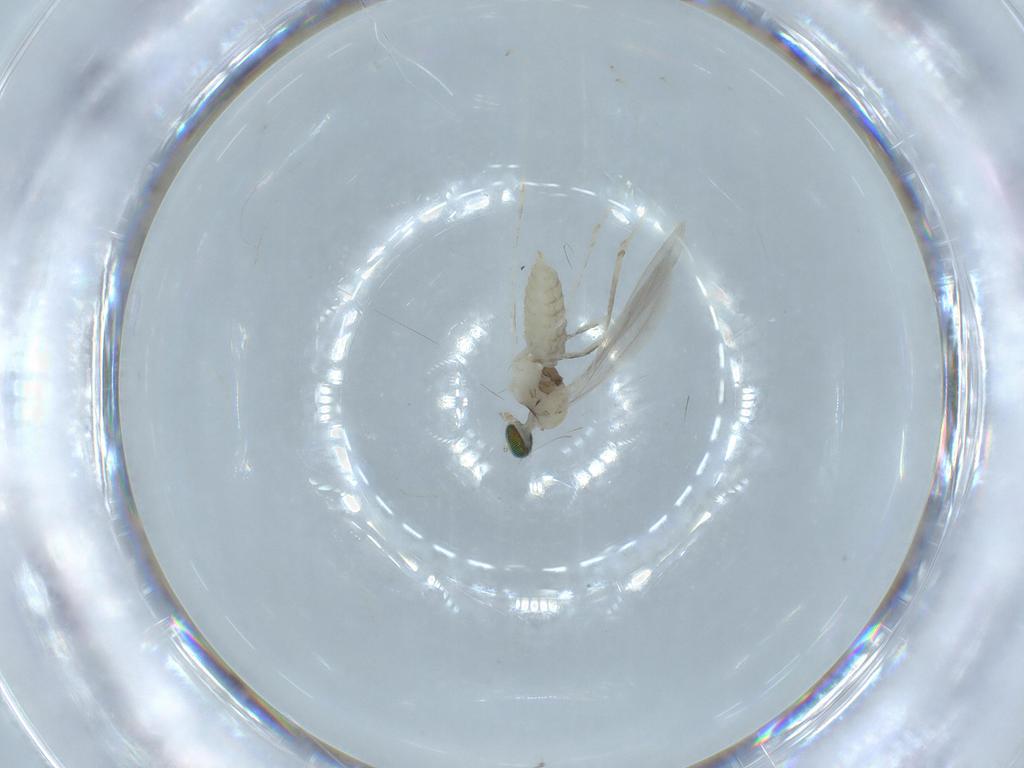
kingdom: Animalia
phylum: Arthropoda
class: Insecta
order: Diptera
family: Cecidomyiidae
